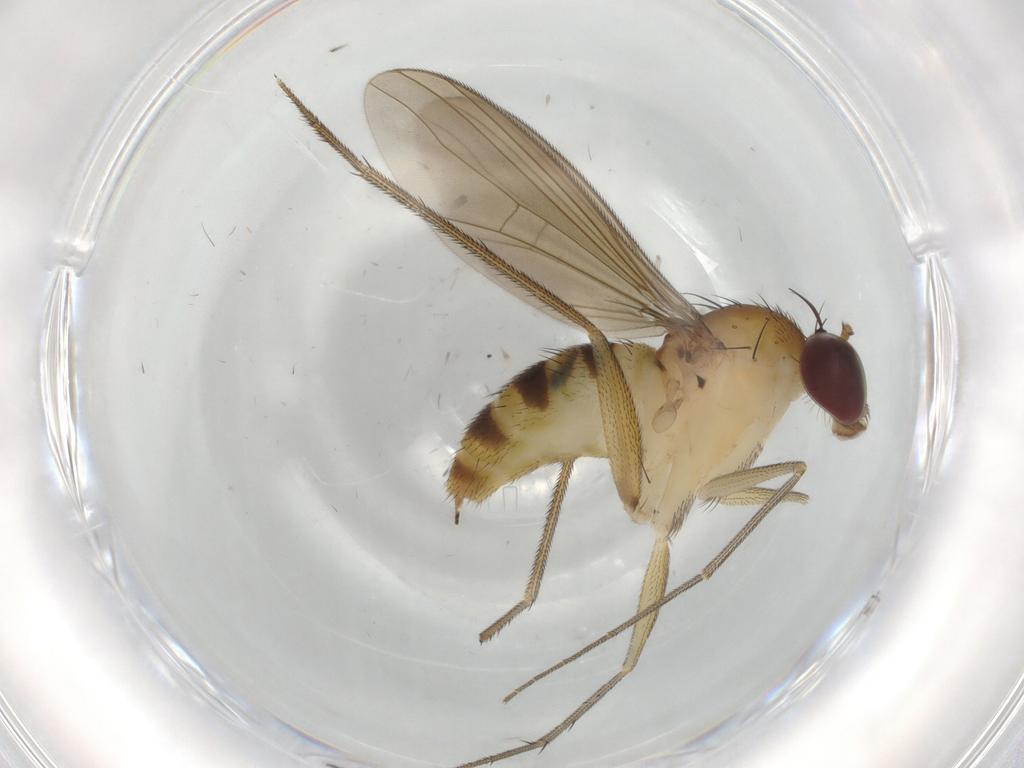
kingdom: Animalia
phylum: Arthropoda
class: Insecta
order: Diptera
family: Dolichopodidae
